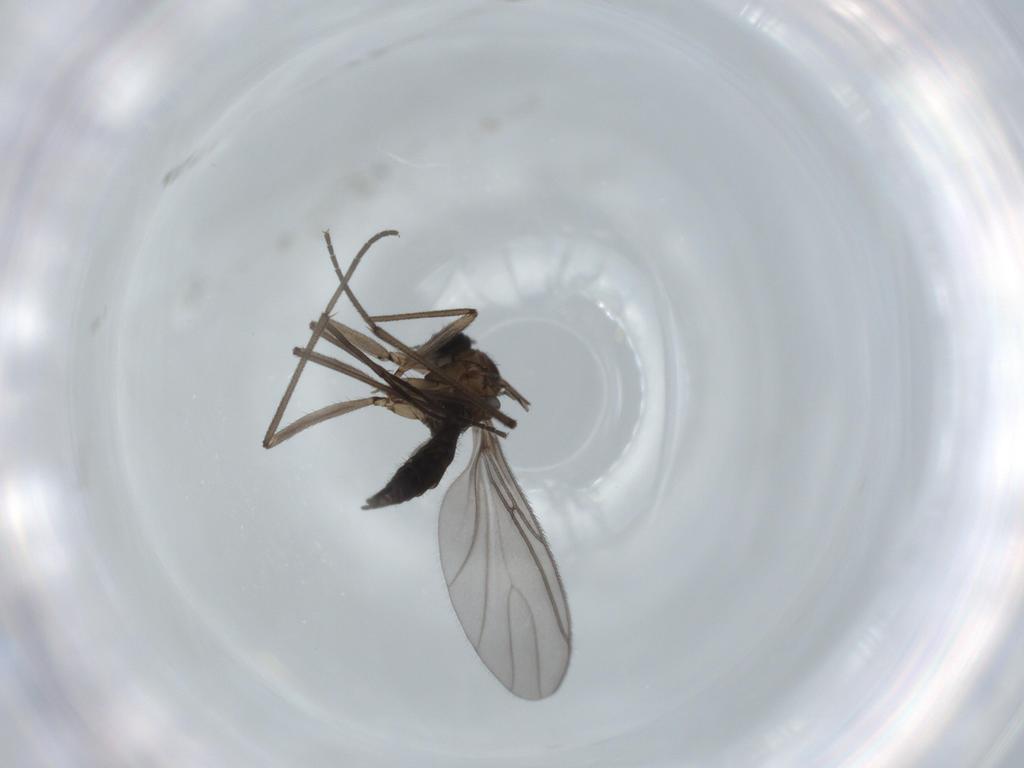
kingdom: Animalia
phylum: Arthropoda
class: Insecta
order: Diptera
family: Sciaridae
